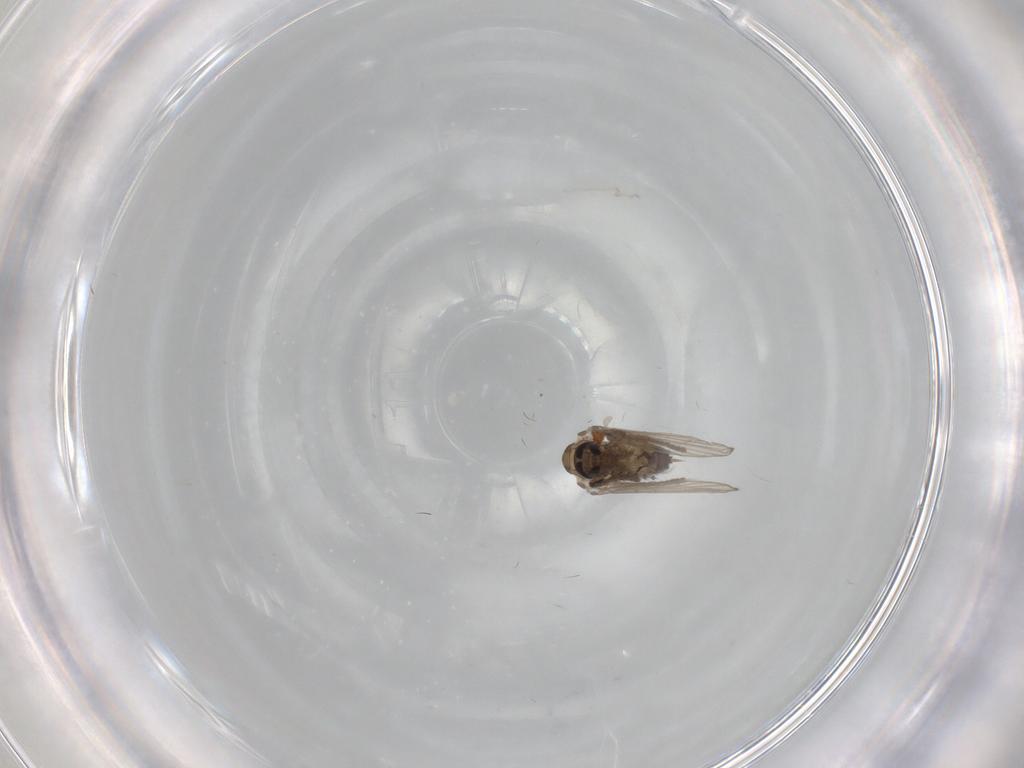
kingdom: Animalia
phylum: Arthropoda
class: Insecta
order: Diptera
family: Psychodidae
